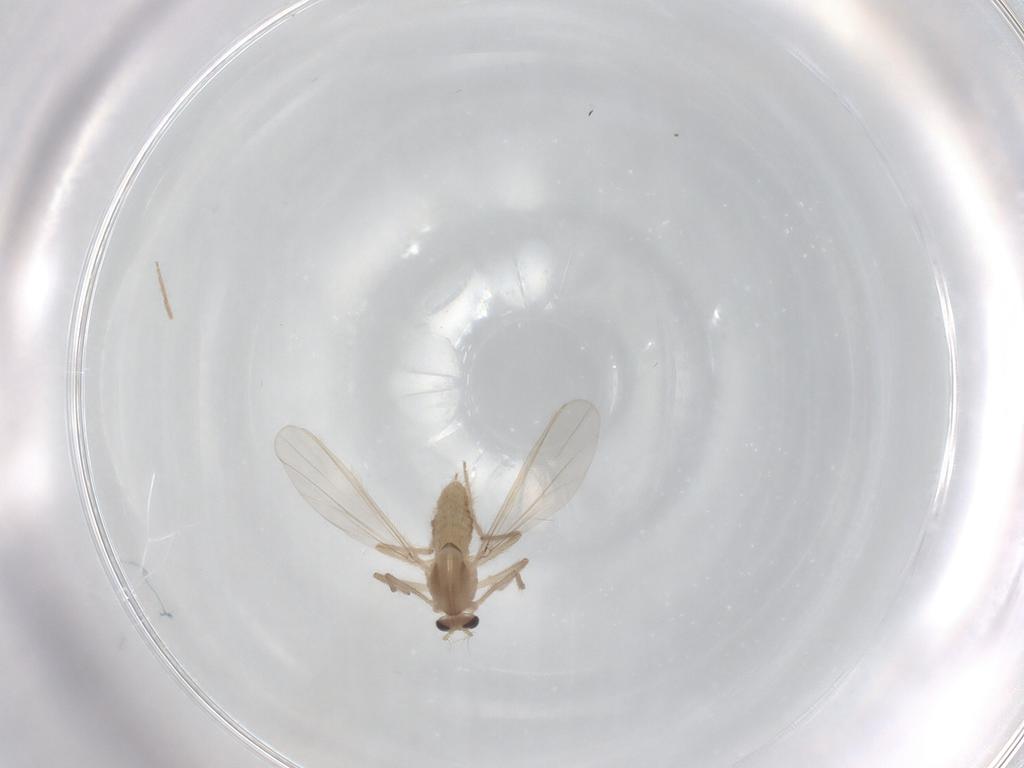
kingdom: Animalia
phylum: Arthropoda
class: Insecta
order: Diptera
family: Chironomidae
